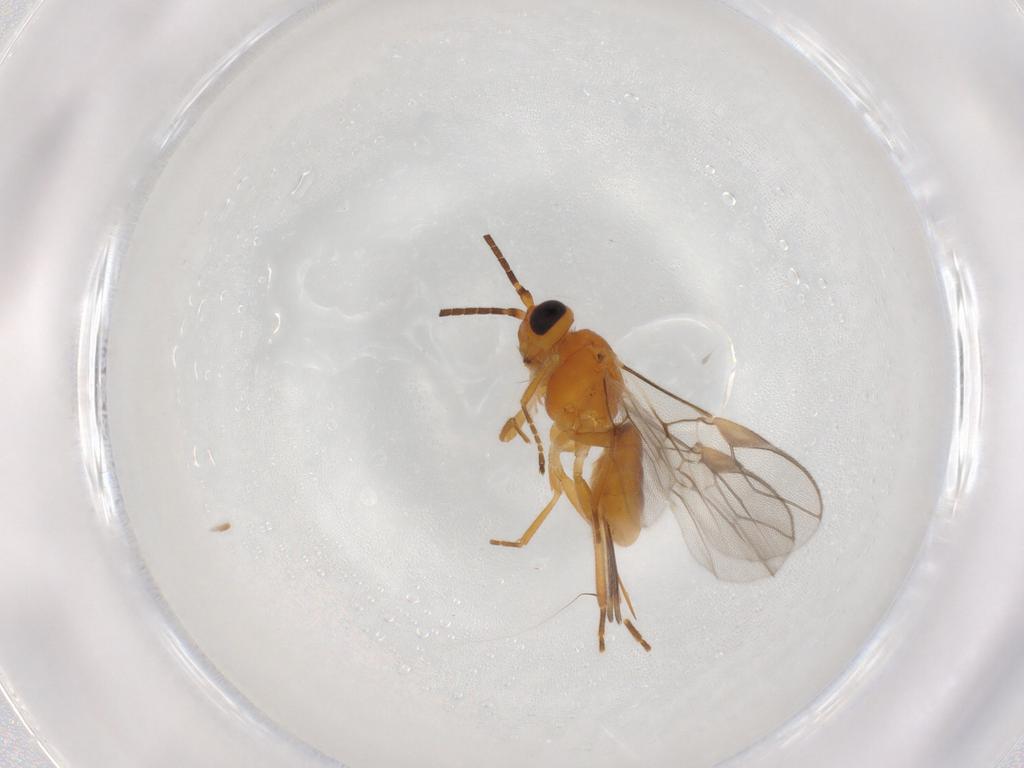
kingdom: Animalia
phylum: Arthropoda
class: Insecta
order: Hymenoptera
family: Braconidae
